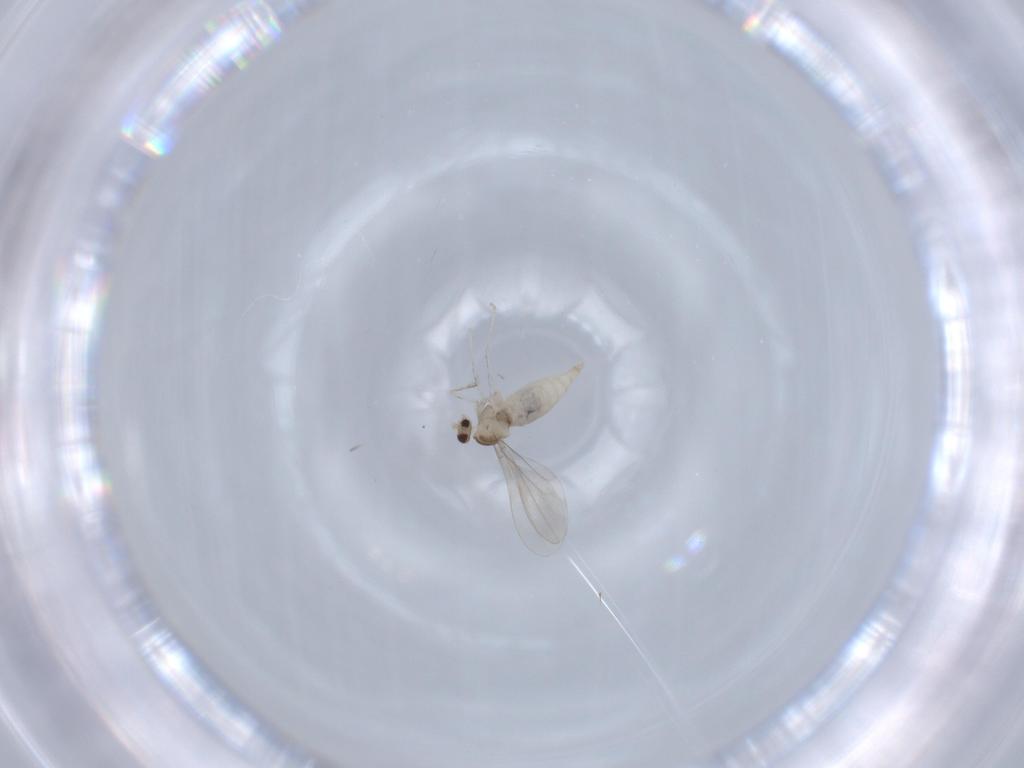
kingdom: Animalia
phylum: Arthropoda
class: Insecta
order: Diptera
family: Cecidomyiidae
